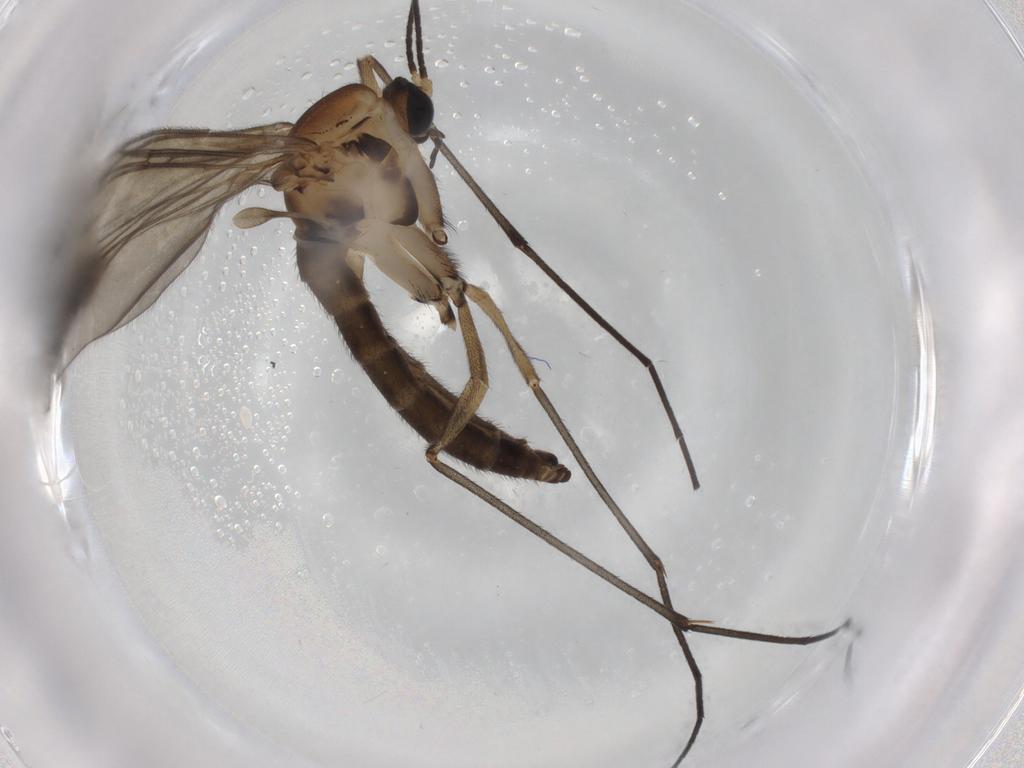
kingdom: Animalia
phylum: Arthropoda
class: Insecta
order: Diptera
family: Sciaridae
